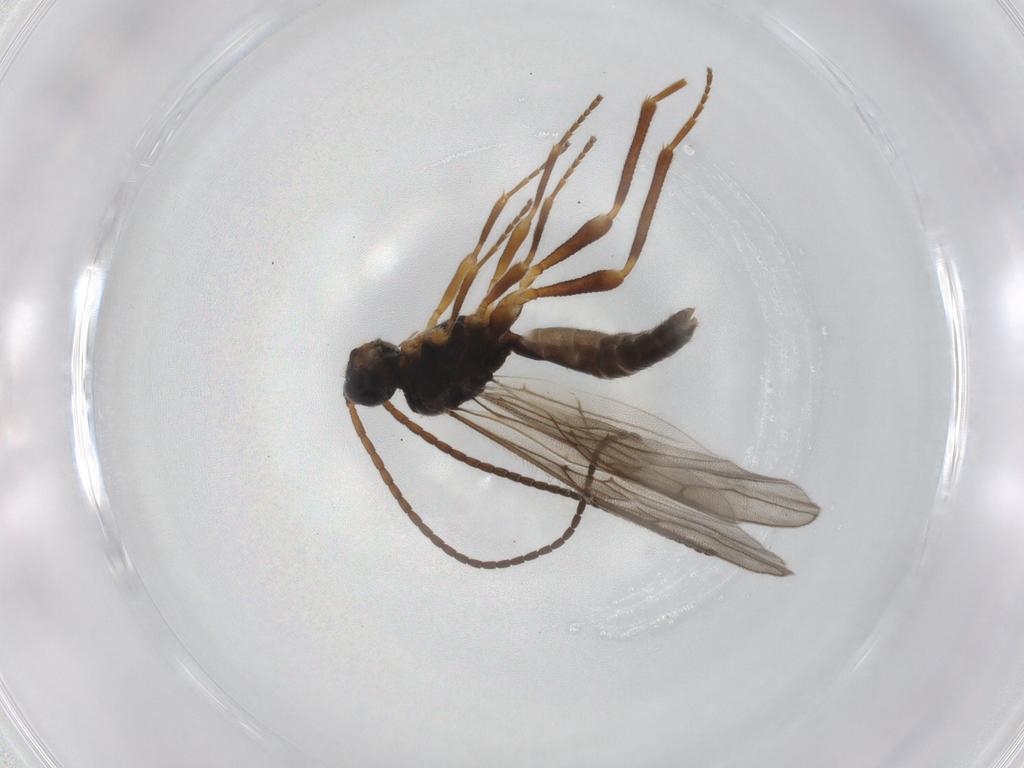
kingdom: Animalia
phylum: Arthropoda
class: Insecta
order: Hymenoptera
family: Braconidae
